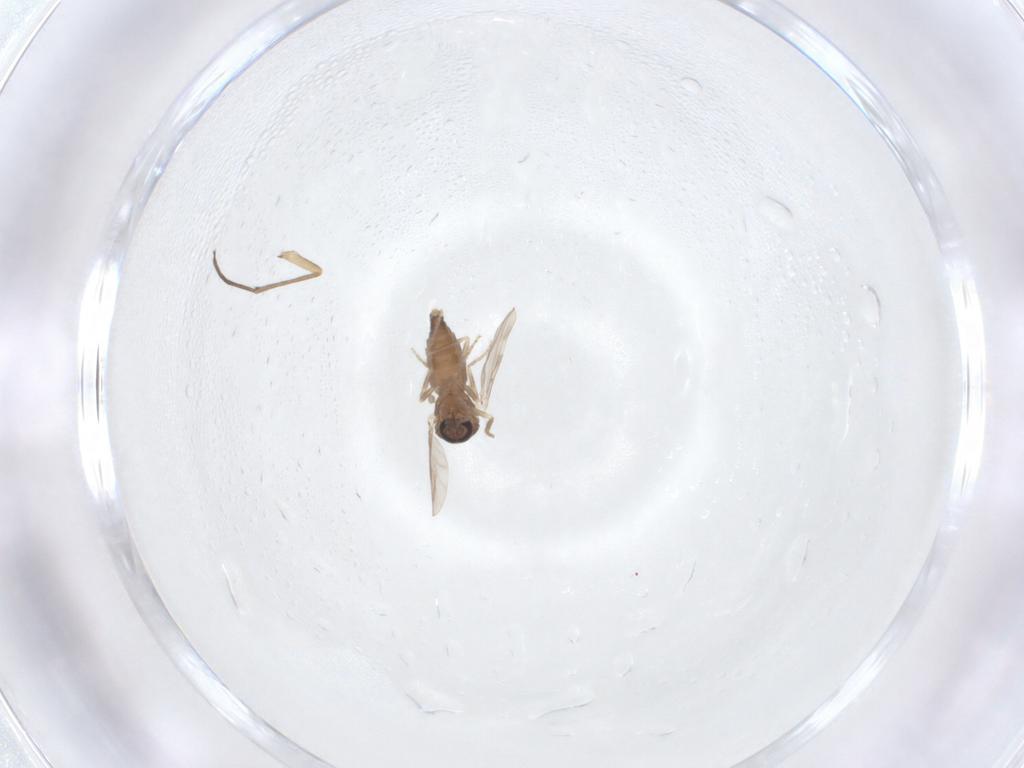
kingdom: Animalia
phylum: Arthropoda
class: Insecta
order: Diptera
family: Sciaridae
